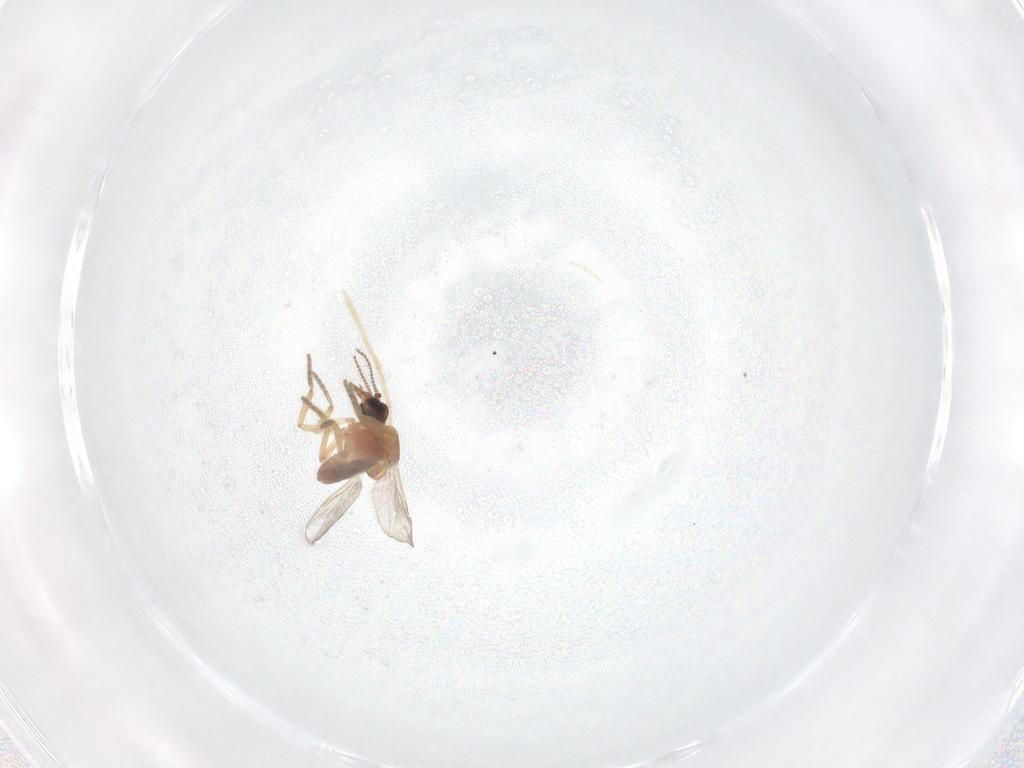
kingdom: Animalia
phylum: Arthropoda
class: Insecta
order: Diptera
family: Chironomidae
